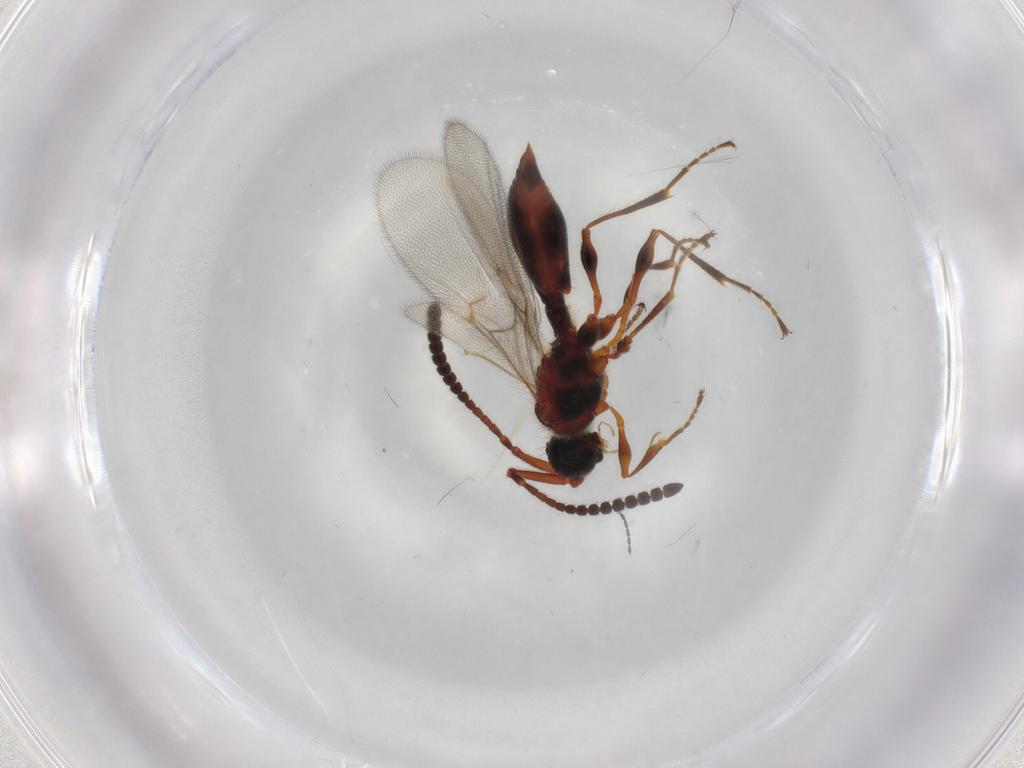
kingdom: Animalia
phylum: Arthropoda
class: Insecta
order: Hymenoptera
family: Diapriidae
